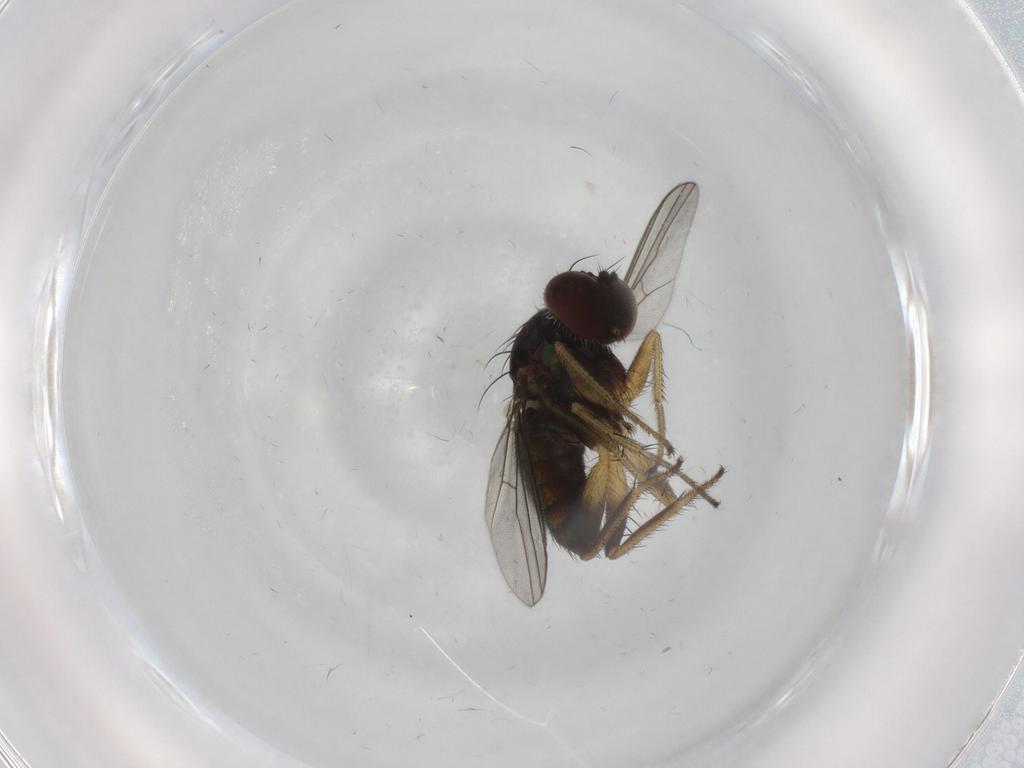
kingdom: Animalia
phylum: Arthropoda
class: Insecta
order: Diptera
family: Dolichopodidae
